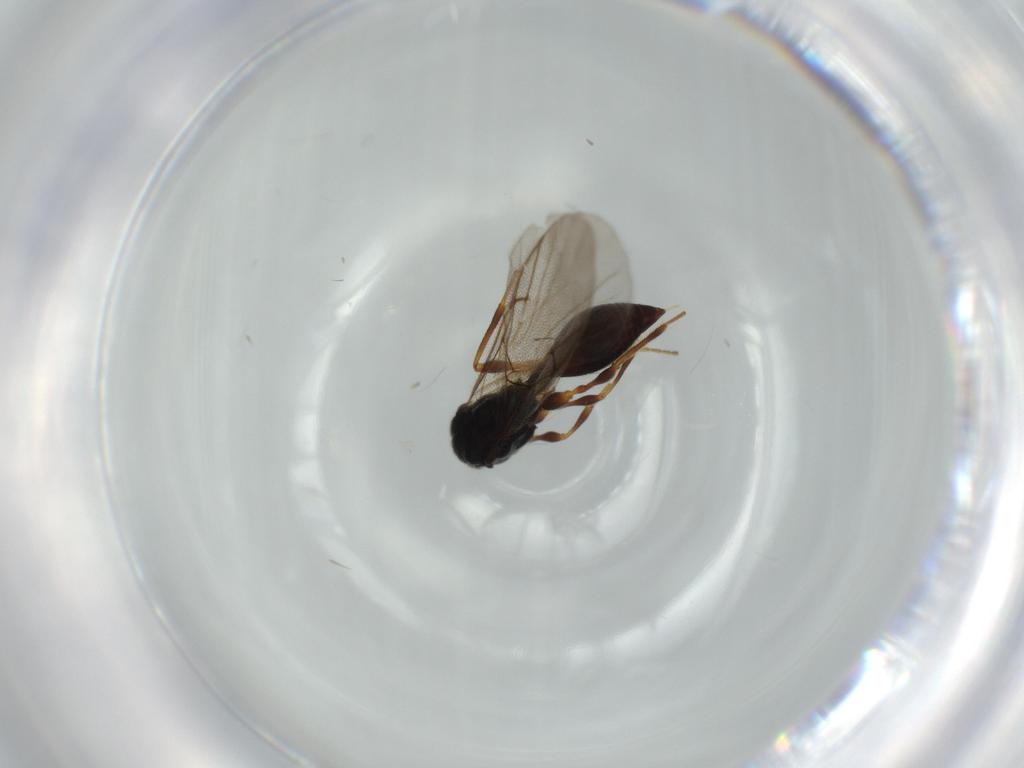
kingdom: Animalia
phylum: Arthropoda
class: Insecta
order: Hymenoptera
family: Diapriidae
